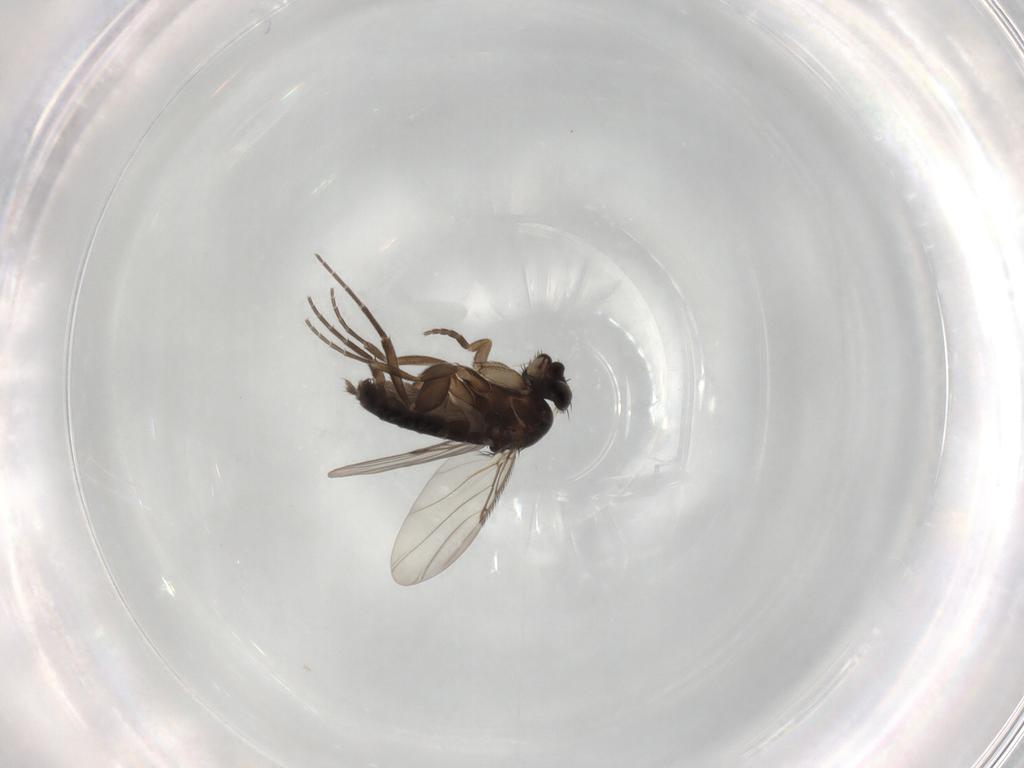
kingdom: Animalia
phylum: Arthropoda
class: Insecta
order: Diptera
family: Phoridae
